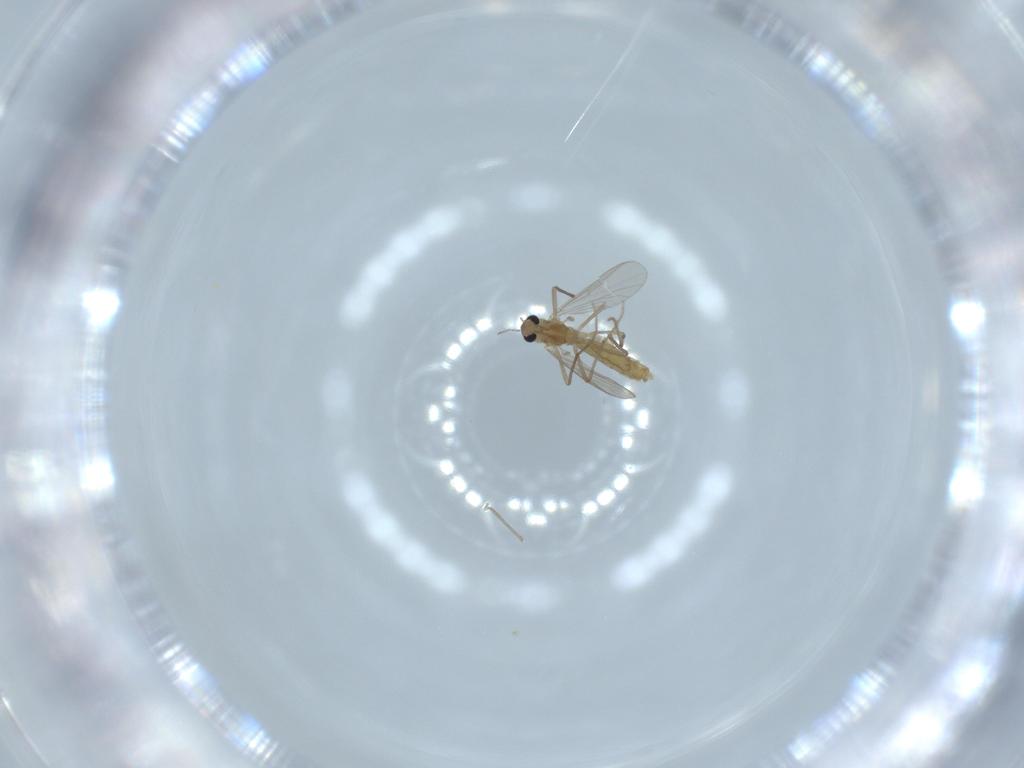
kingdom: Animalia
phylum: Arthropoda
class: Insecta
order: Diptera
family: Chironomidae
